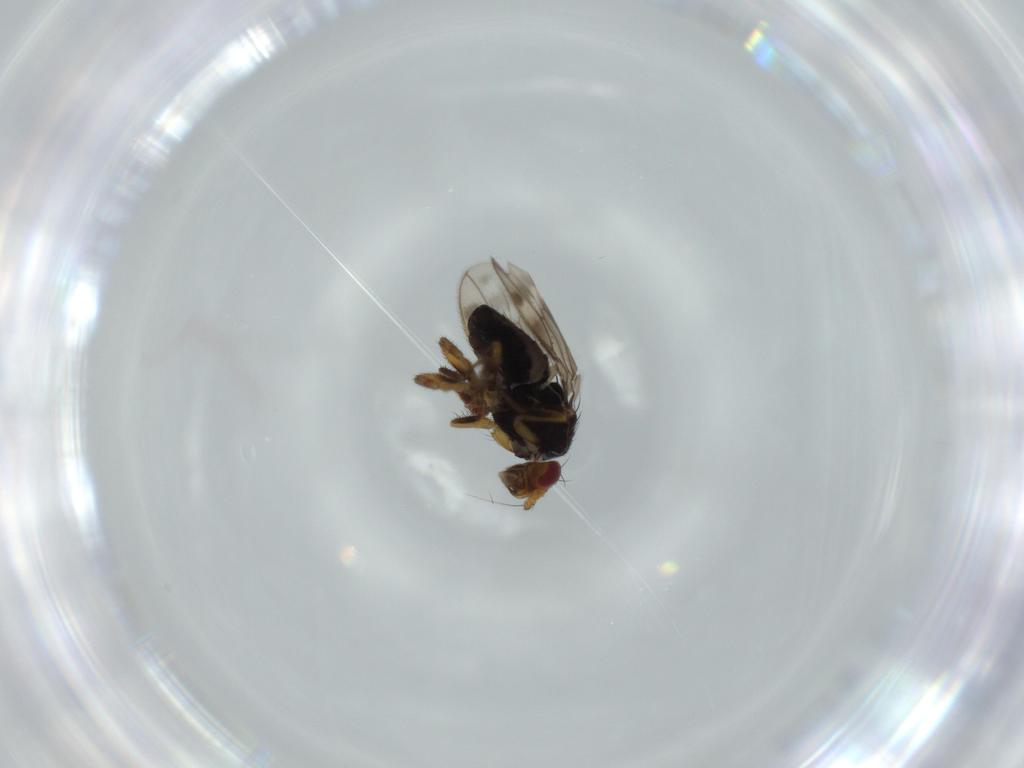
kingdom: Animalia
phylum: Arthropoda
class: Insecta
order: Diptera
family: Sphaeroceridae
